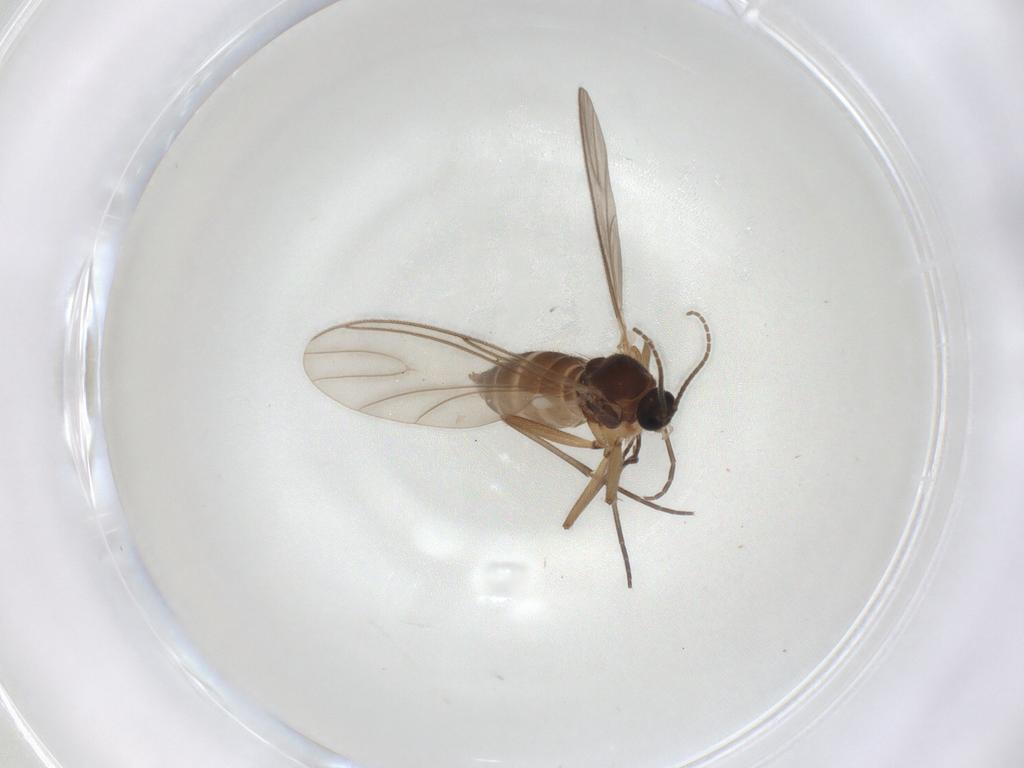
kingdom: Animalia
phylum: Arthropoda
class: Insecta
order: Diptera
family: Sciaridae
